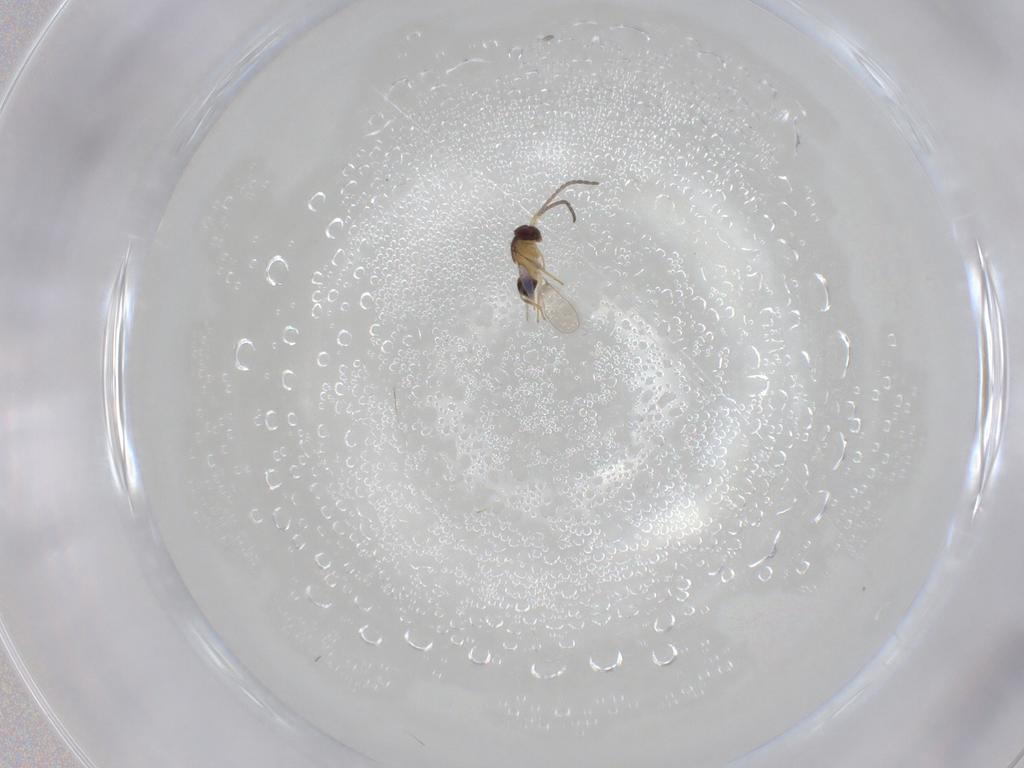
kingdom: Animalia
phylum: Arthropoda
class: Insecta
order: Hymenoptera
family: Mymaridae
